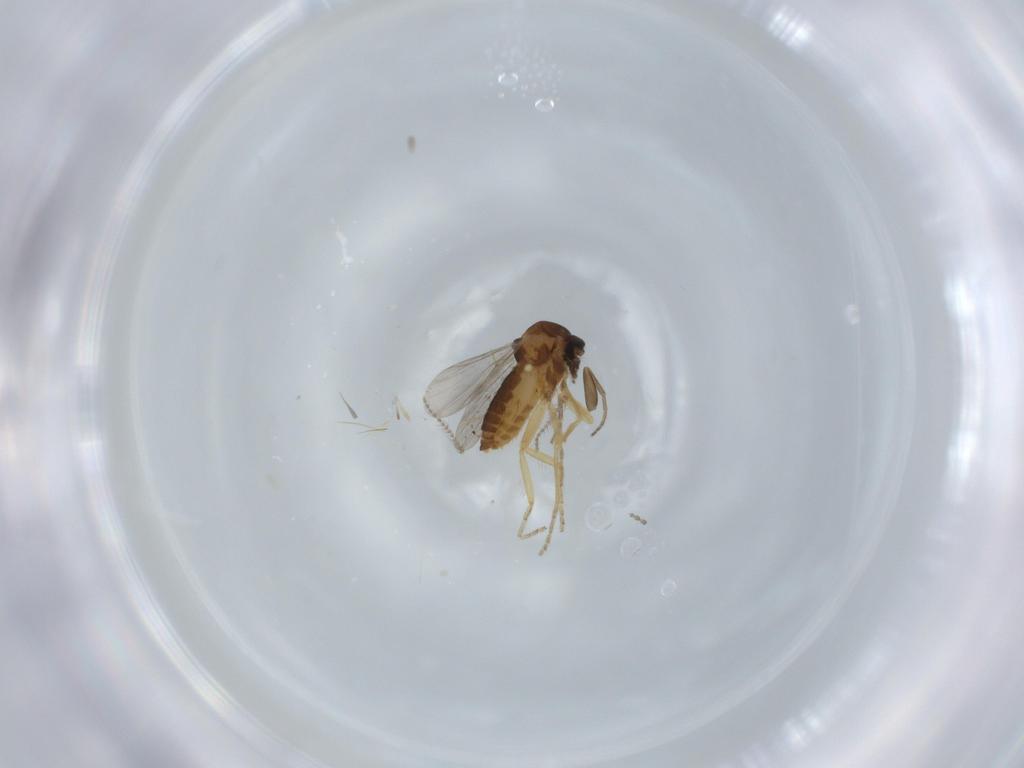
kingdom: Animalia
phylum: Arthropoda
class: Insecta
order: Diptera
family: Ceratopogonidae
